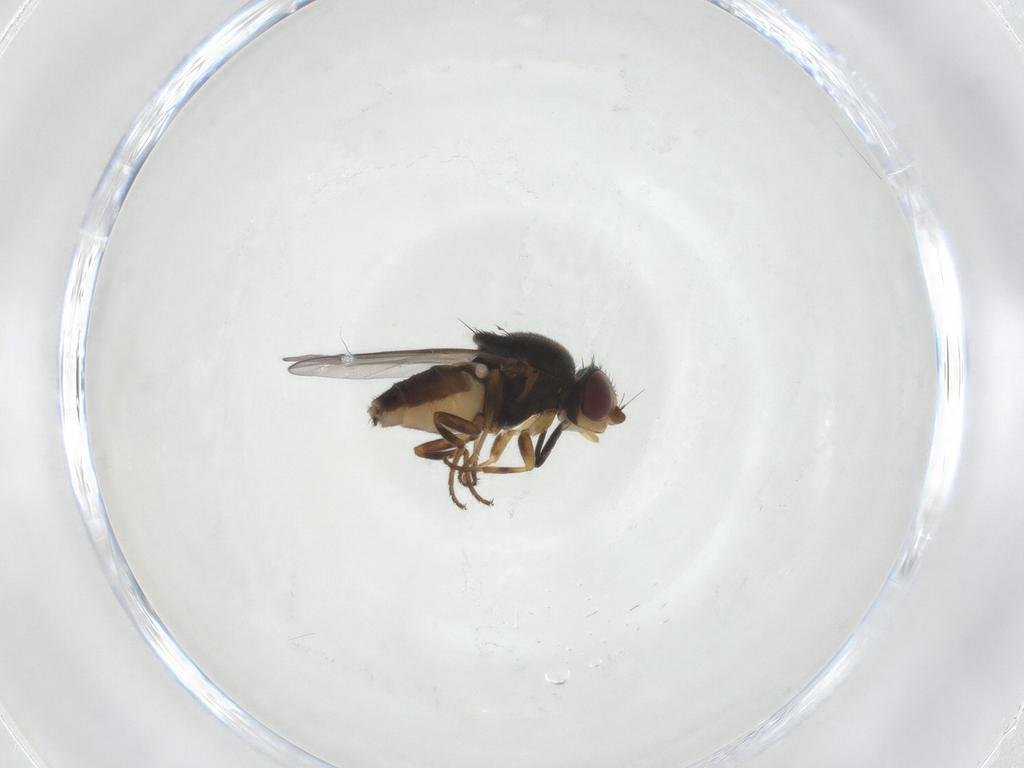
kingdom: Animalia
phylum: Arthropoda
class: Insecta
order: Diptera
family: Chloropidae
